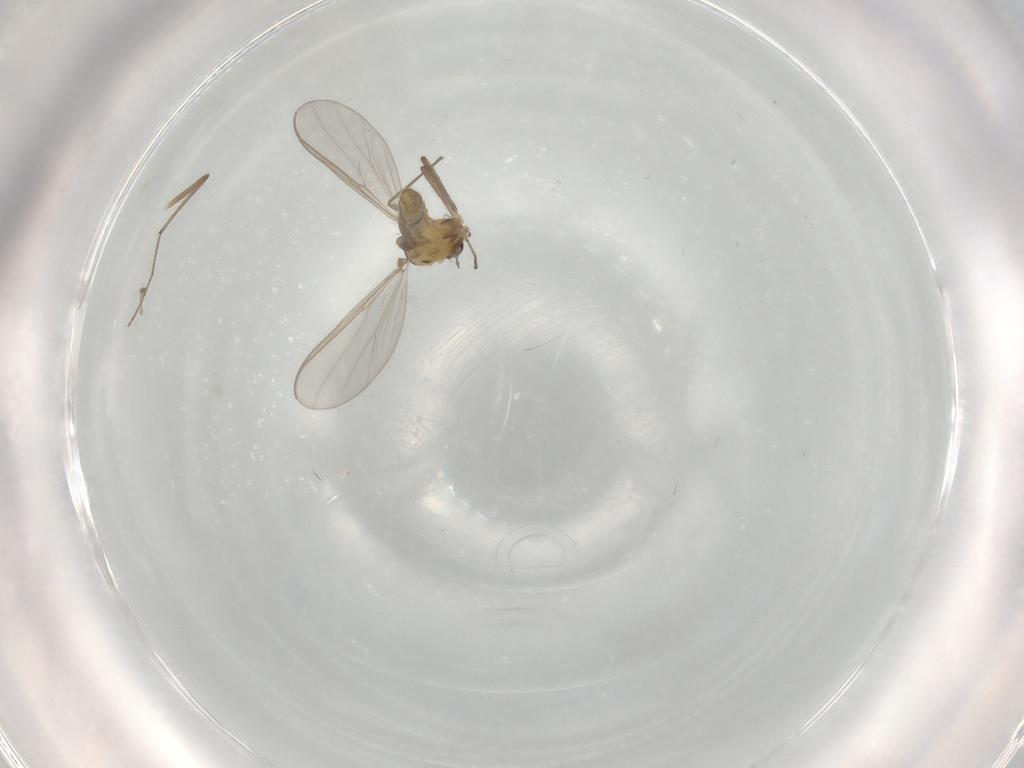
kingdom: Animalia
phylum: Arthropoda
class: Insecta
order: Diptera
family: Chironomidae
